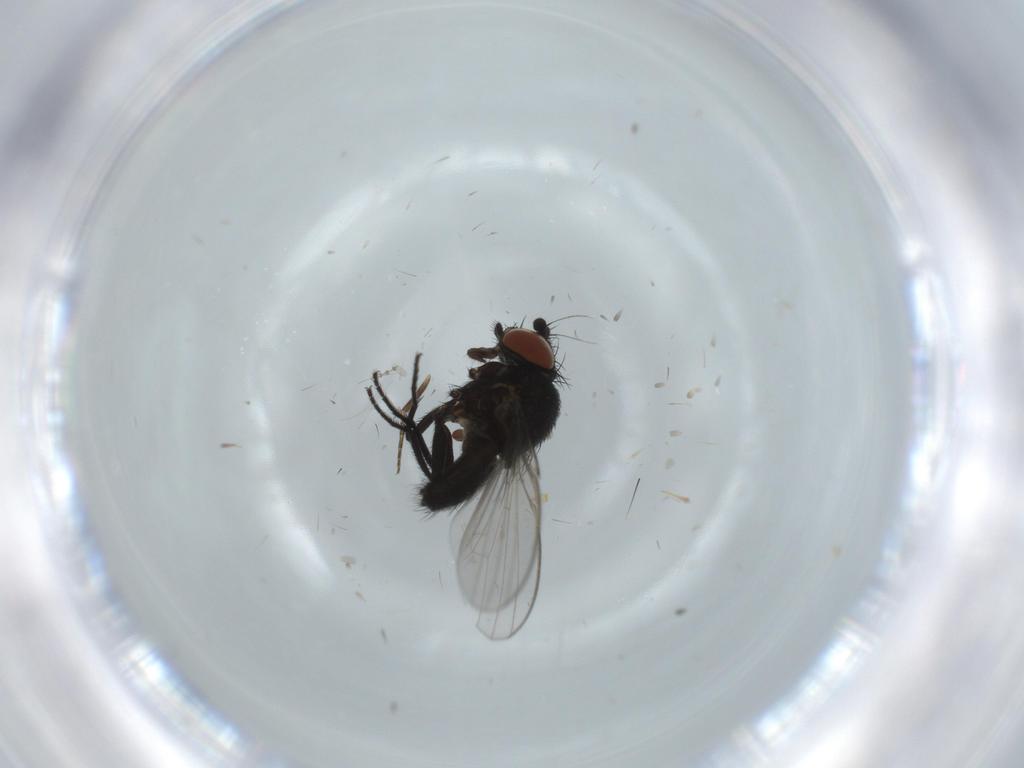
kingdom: Animalia
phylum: Arthropoda
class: Insecta
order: Diptera
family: Milichiidae
